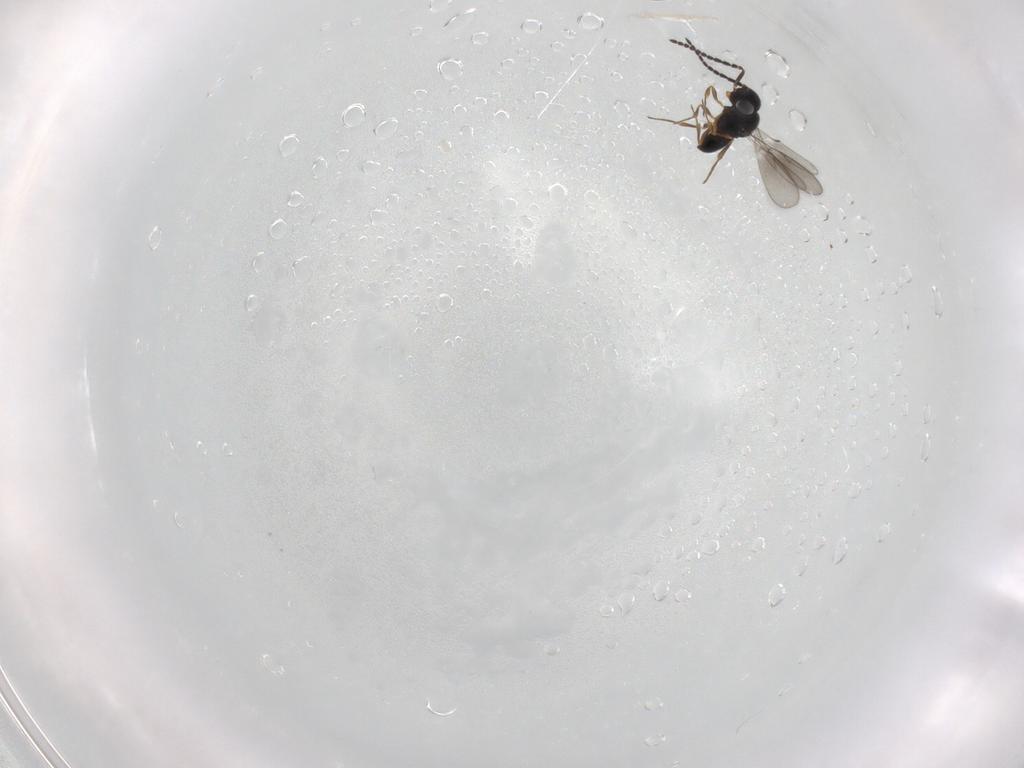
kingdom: Animalia
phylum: Arthropoda
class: Insecta
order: Hymenoptera
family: Scelionidae
